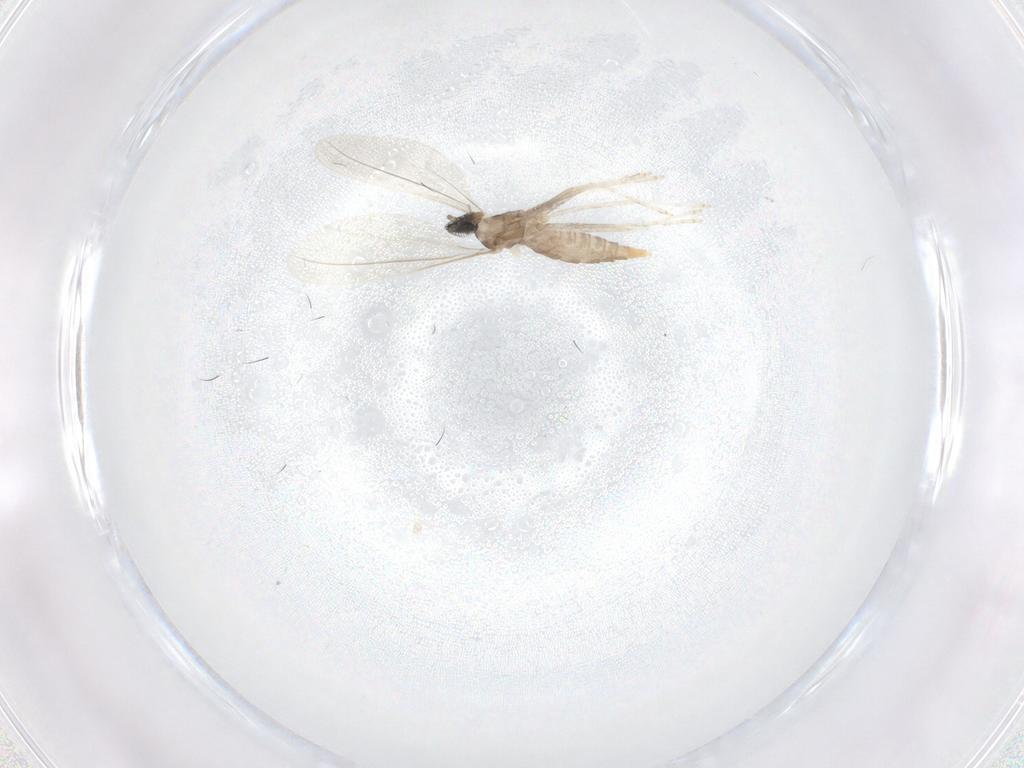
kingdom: Animalia
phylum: Arthropoda
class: Insecta
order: Diptera
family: Cecidomyiidae
